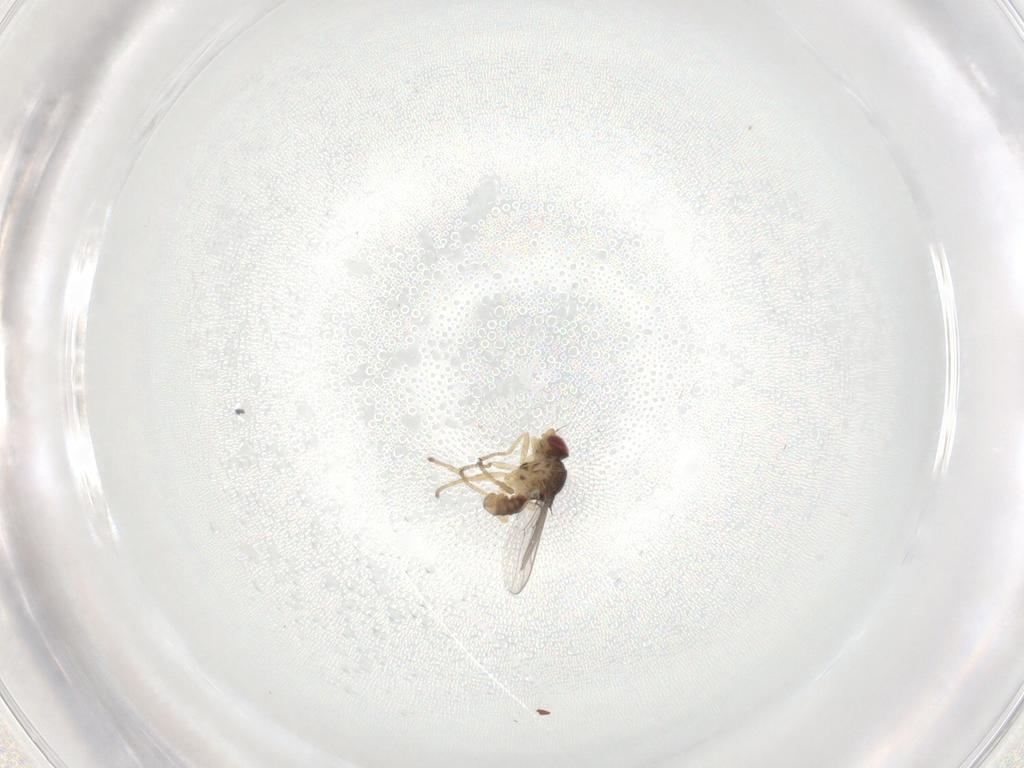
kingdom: Animalia
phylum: Arthropoda
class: Insecta
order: Diptera
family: Chloropidae
